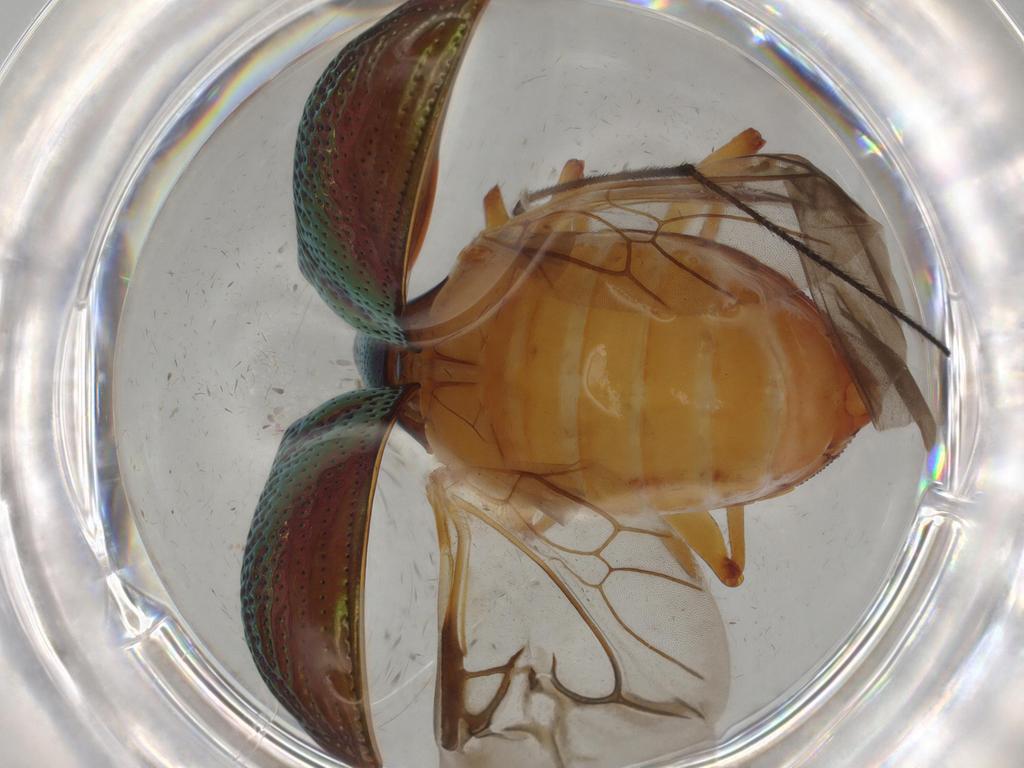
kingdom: Animalia
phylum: Arthropoda
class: Insecta
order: Coleoptera
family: Chrysomelidae
